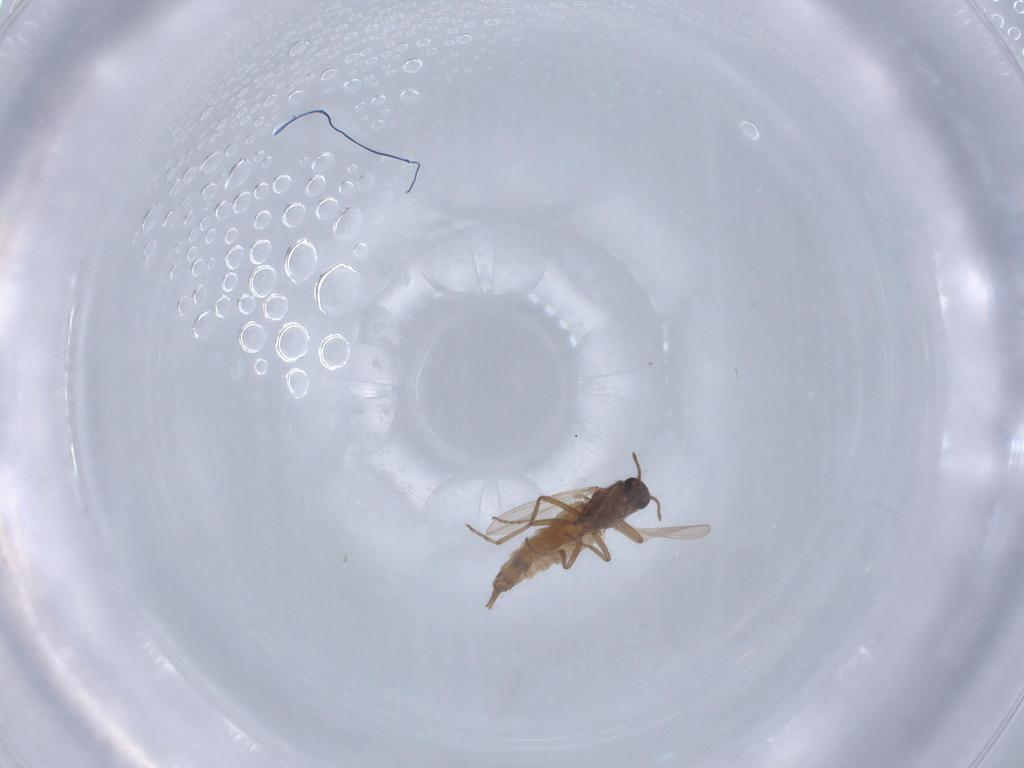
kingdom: Animalia
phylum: Arthropoda
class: Insecta
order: Diptera
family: Ceratopogonidae
